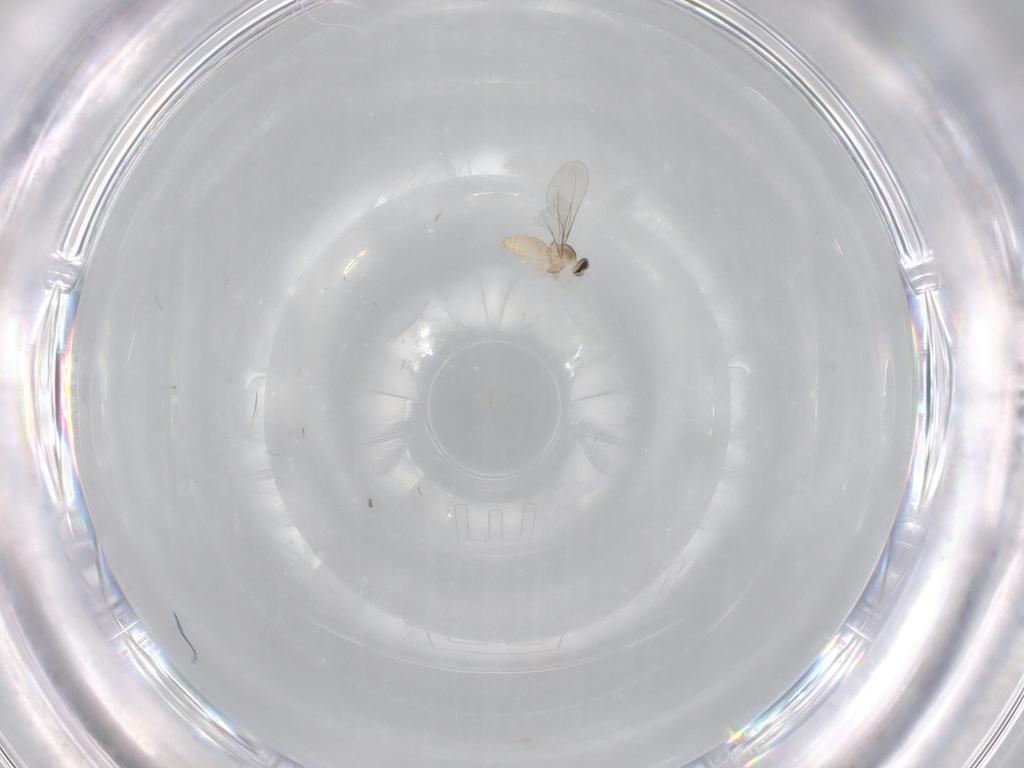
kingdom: Animalia
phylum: Arthropoda
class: Insecta
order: Diptera
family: Cecidomyiidae
